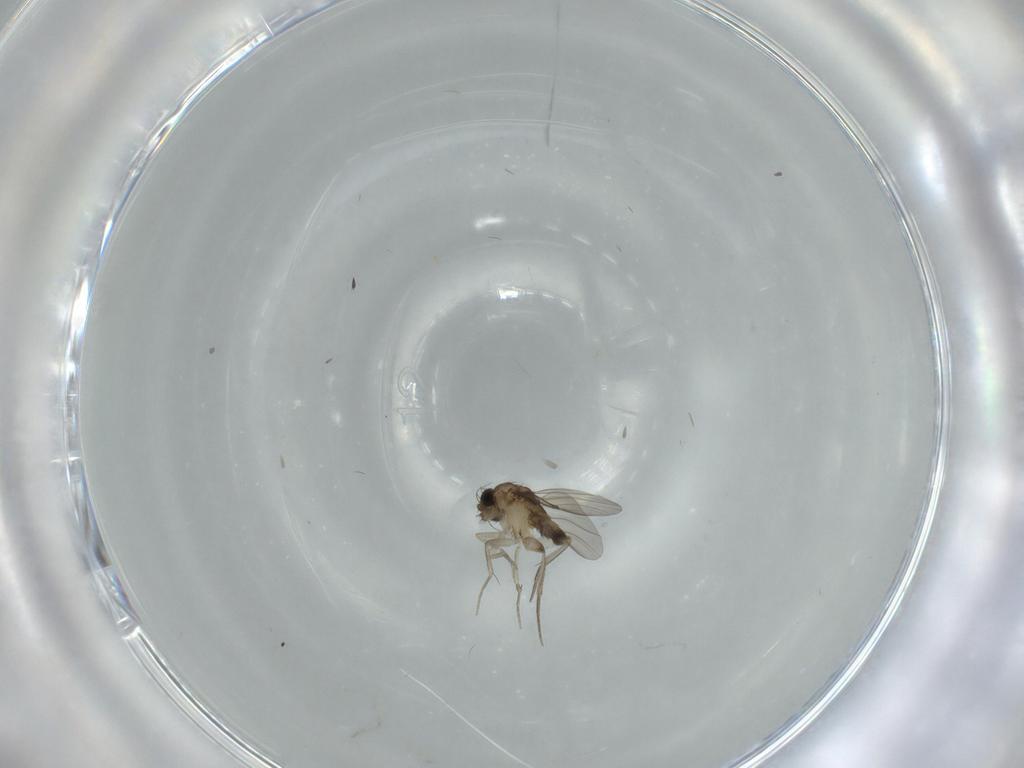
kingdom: Animalia
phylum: Arthropoda
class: Insecta
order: Diptera
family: Phoridae
